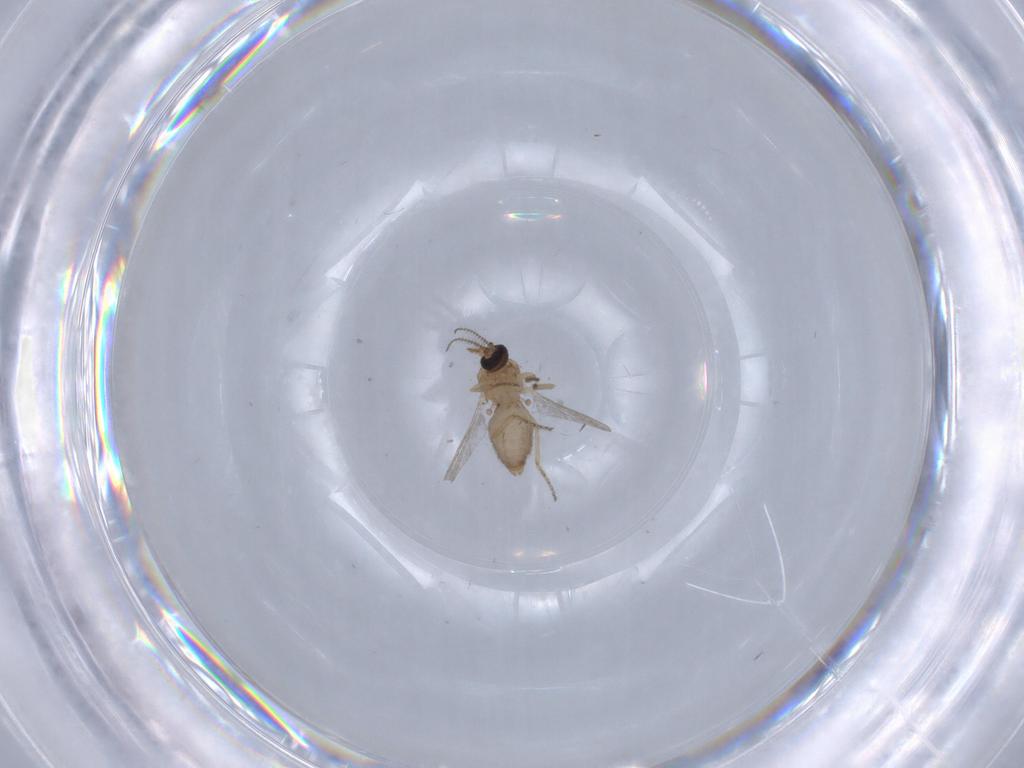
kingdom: Animalia
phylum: Arthropoda
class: Insecta
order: Diptera
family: Ceratopogonidae
